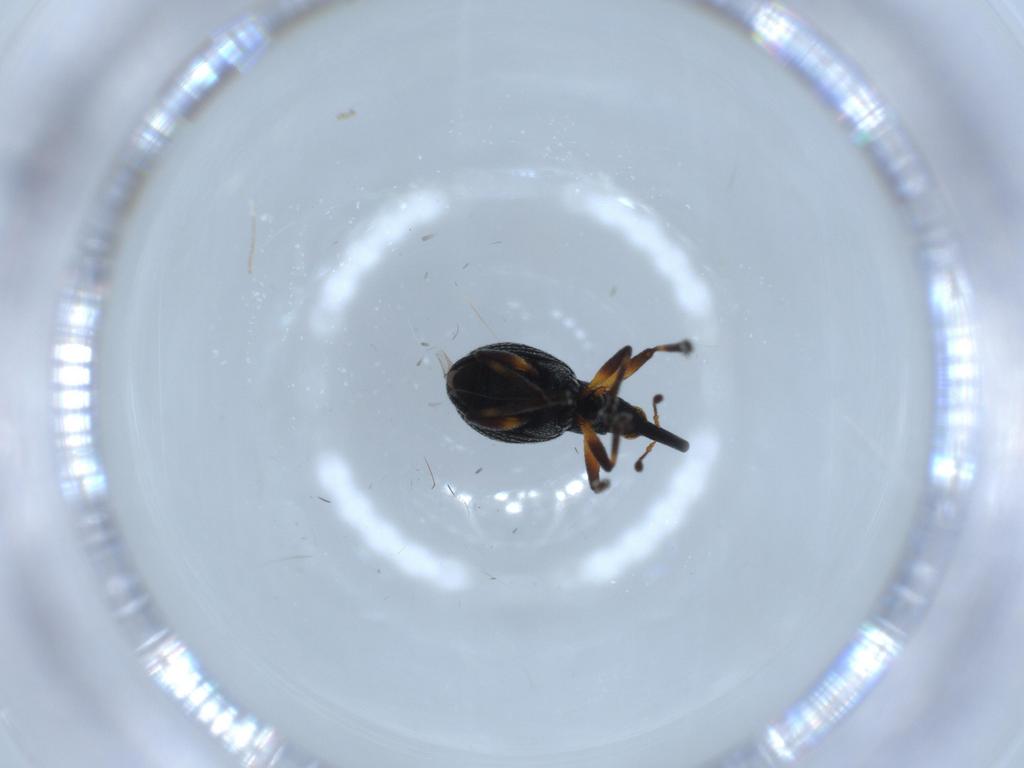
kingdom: Animalia
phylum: Arthropoda
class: Insecta
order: Coleoptera
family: Brentidae
